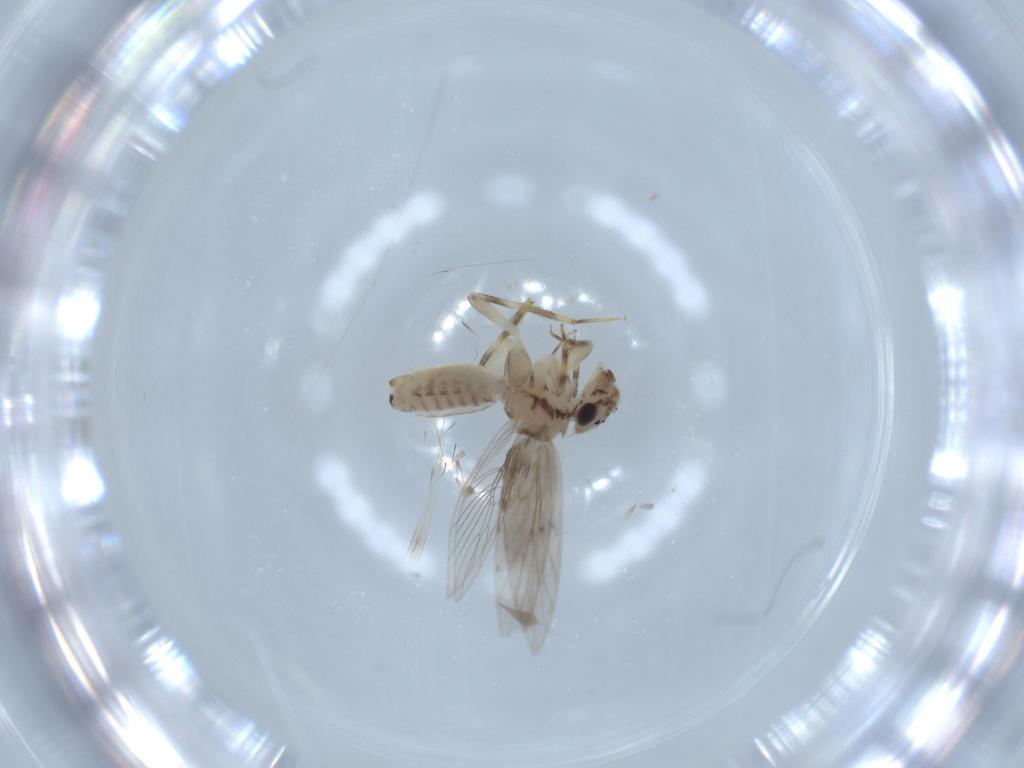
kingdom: Animalia
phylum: Arthropoda
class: Insecta
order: Psocodea
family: Lepidopsocidae
